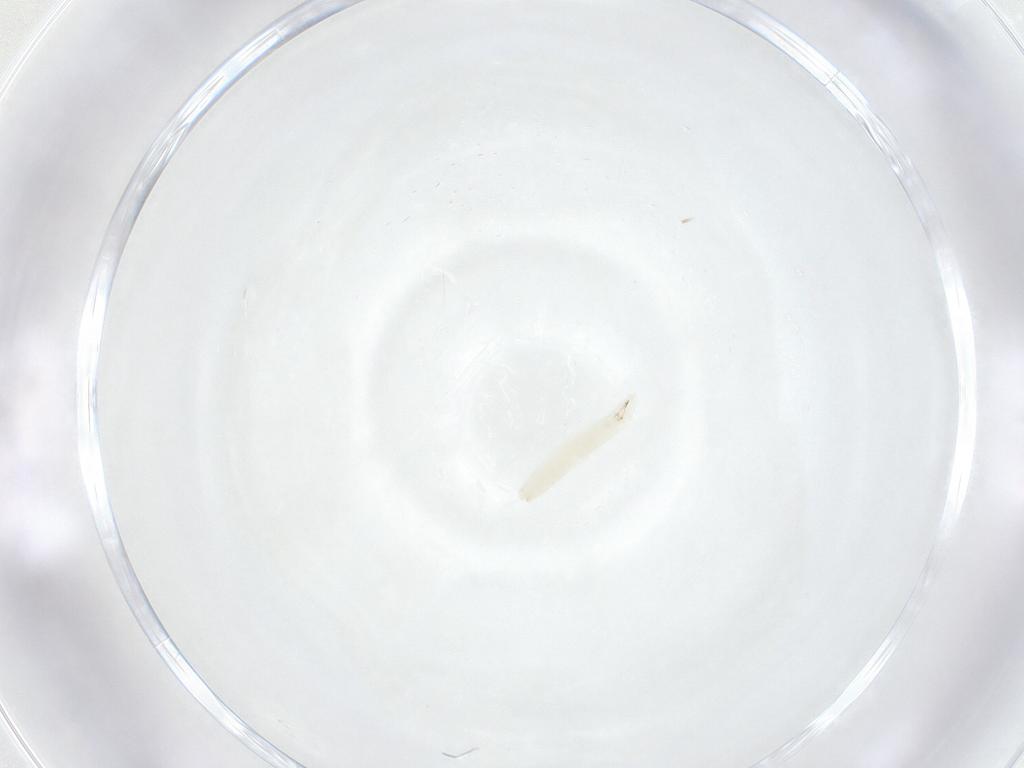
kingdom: Animalia
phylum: Arthropoda
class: Insecta
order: Diptera
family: Sarcophagidae
